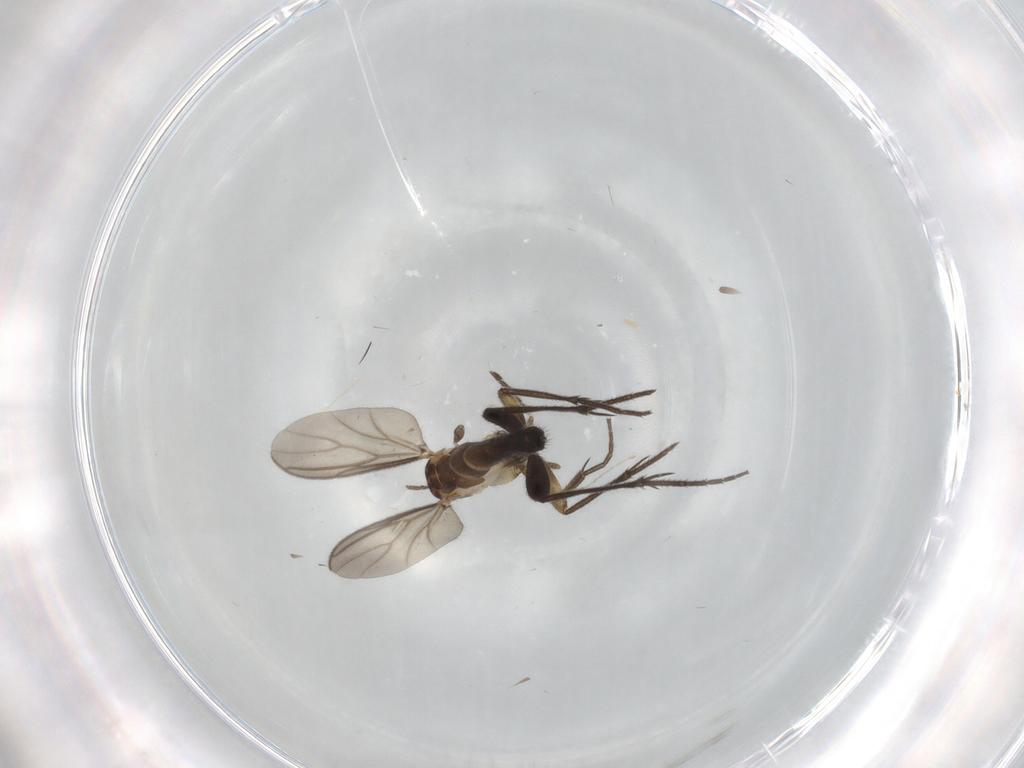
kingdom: Animalia
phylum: Arthropoda
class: Insecta
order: Diptera
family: Mycetophilidae
